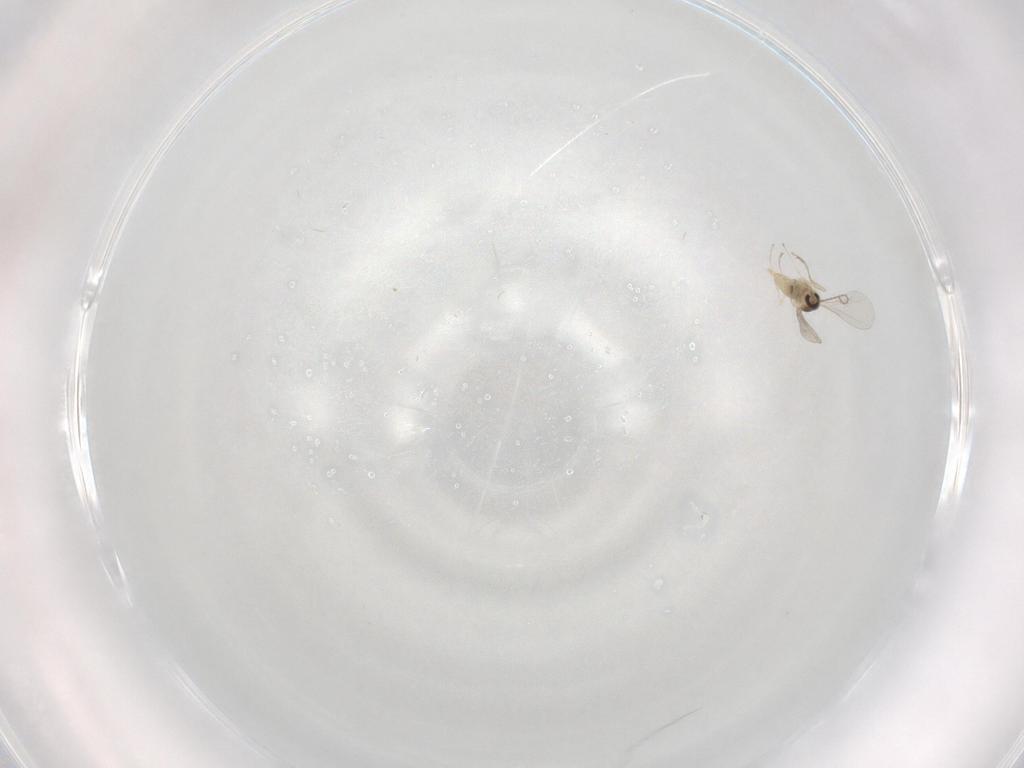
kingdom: Animalia
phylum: Arthropoda
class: Insecta
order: Diptera
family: Cecidomyiidae
